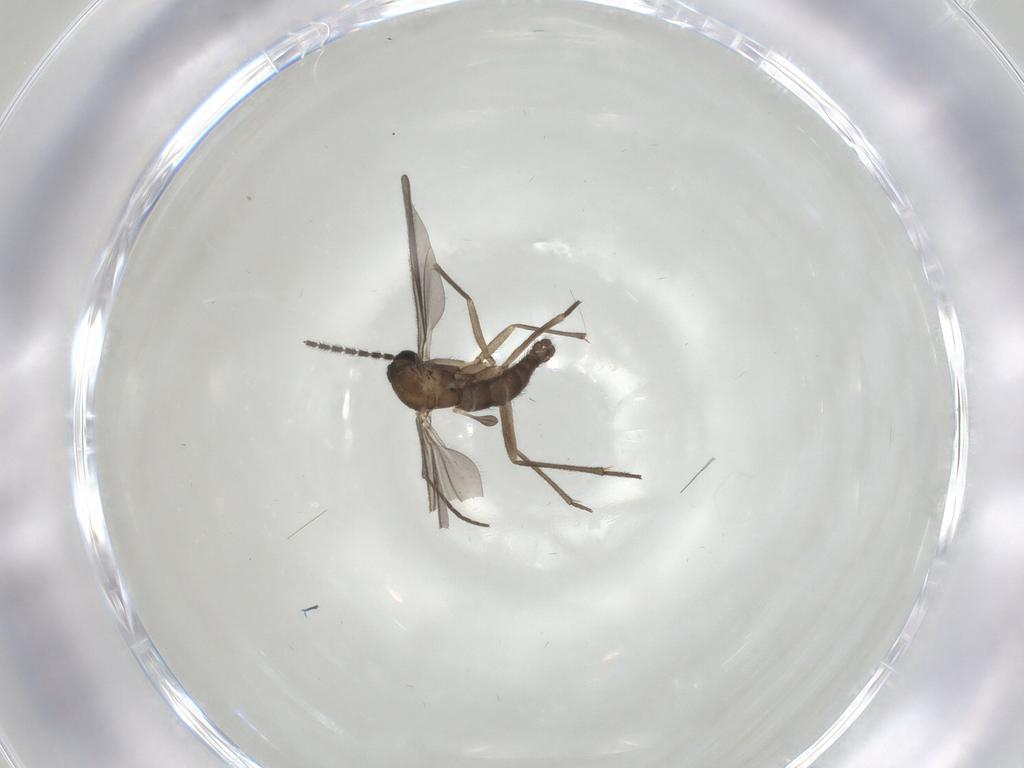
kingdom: Animalia
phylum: Arthropoda
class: Insecta
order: Diptera
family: Sciaridae
